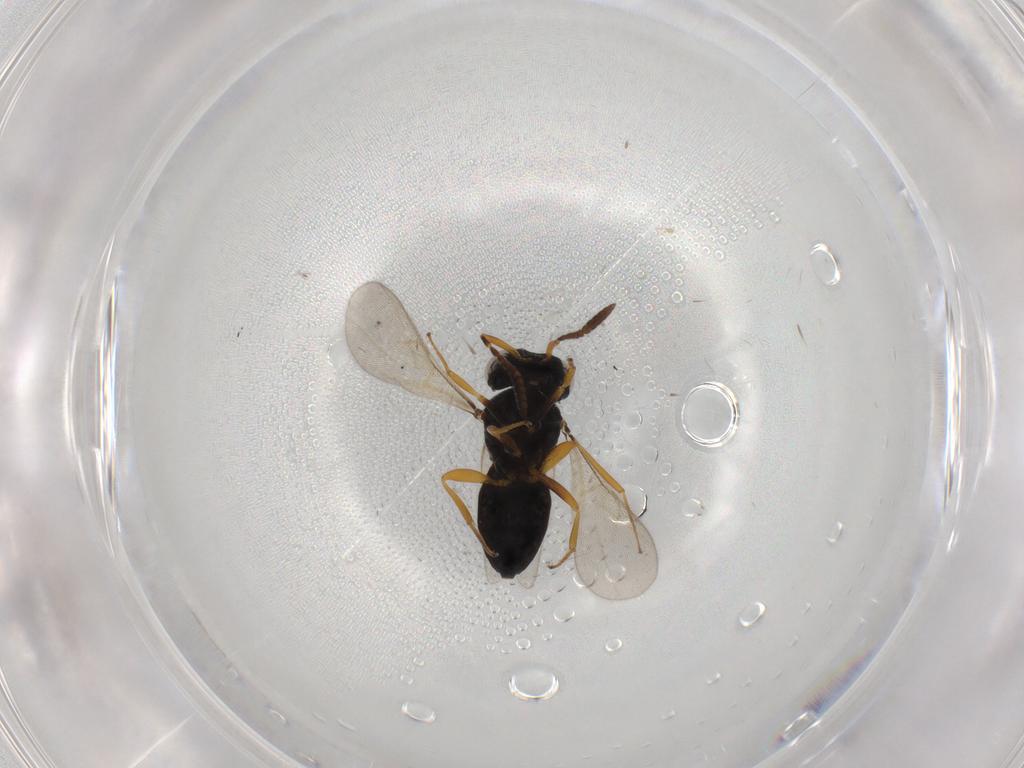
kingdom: Animalia
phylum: Arthropoda
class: Insecta
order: Hymenoptera
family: Scelionidae
